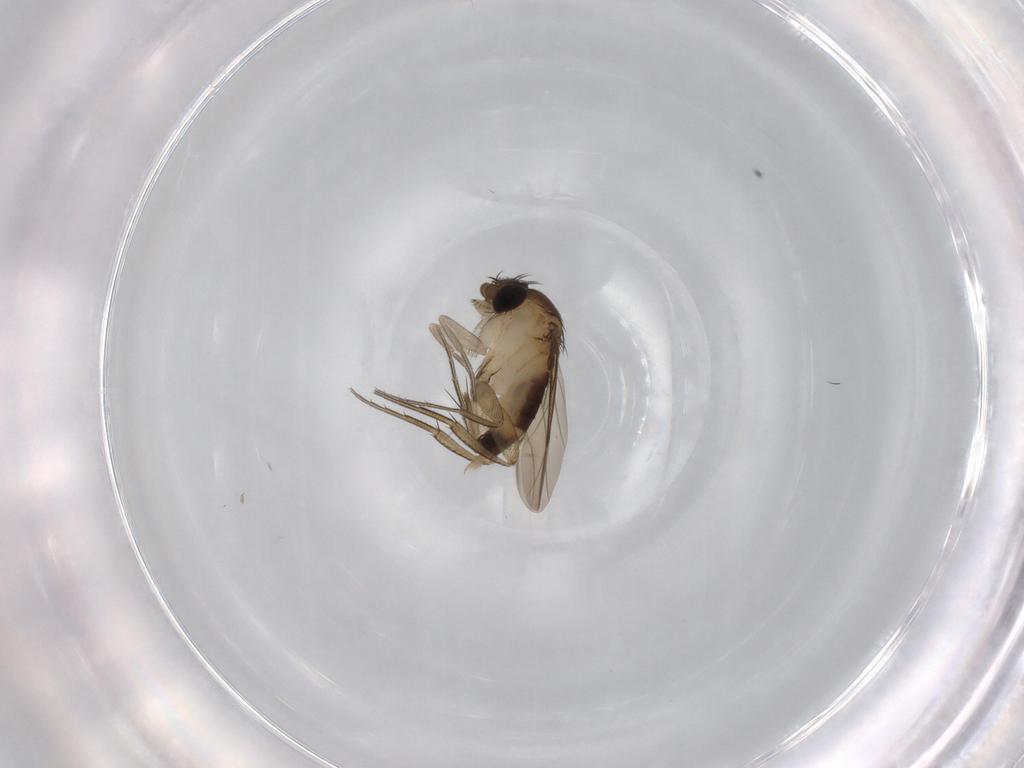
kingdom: Animalia
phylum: Arthropoda
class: Insecta
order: Diptera
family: Phoridae
